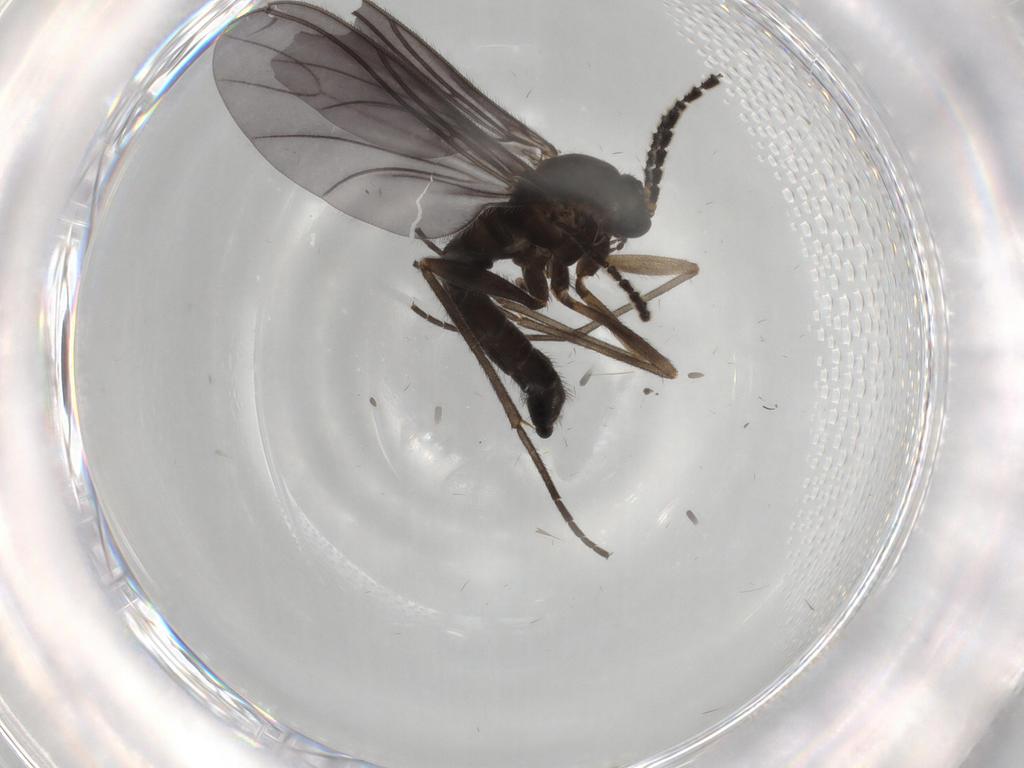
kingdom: Animalia
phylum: Arthropoda
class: Insecta
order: Diptera
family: Sciaridae
